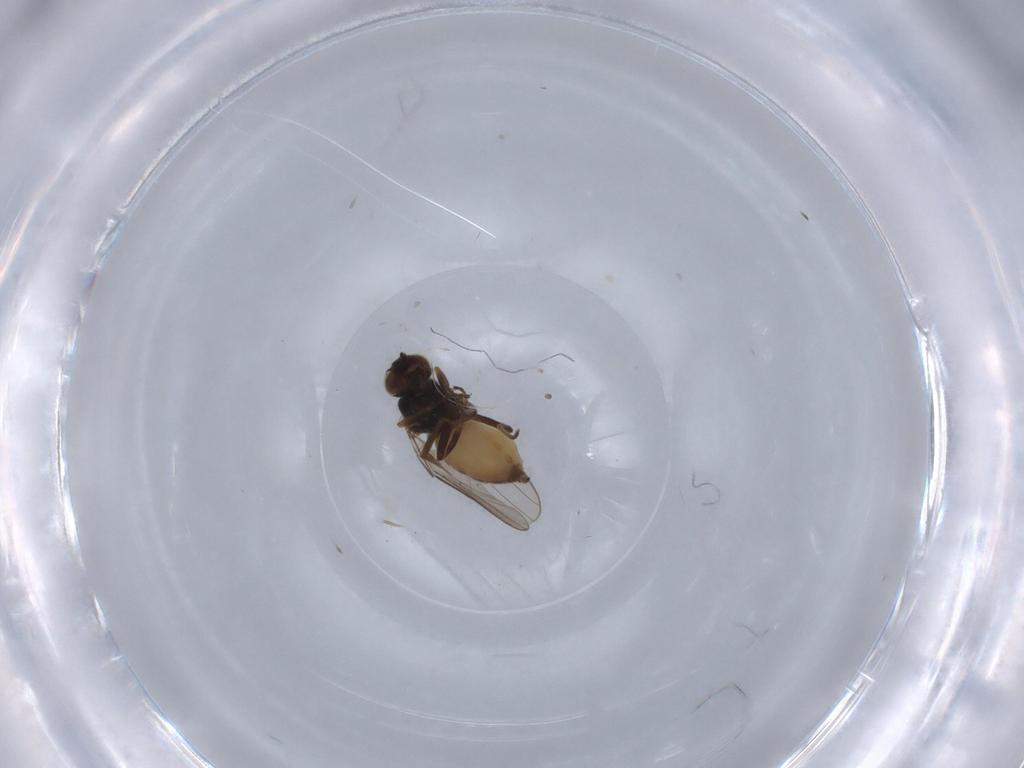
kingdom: Animalia
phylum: Arthropoda
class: Insecta
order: Diptera
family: Chloropidae
